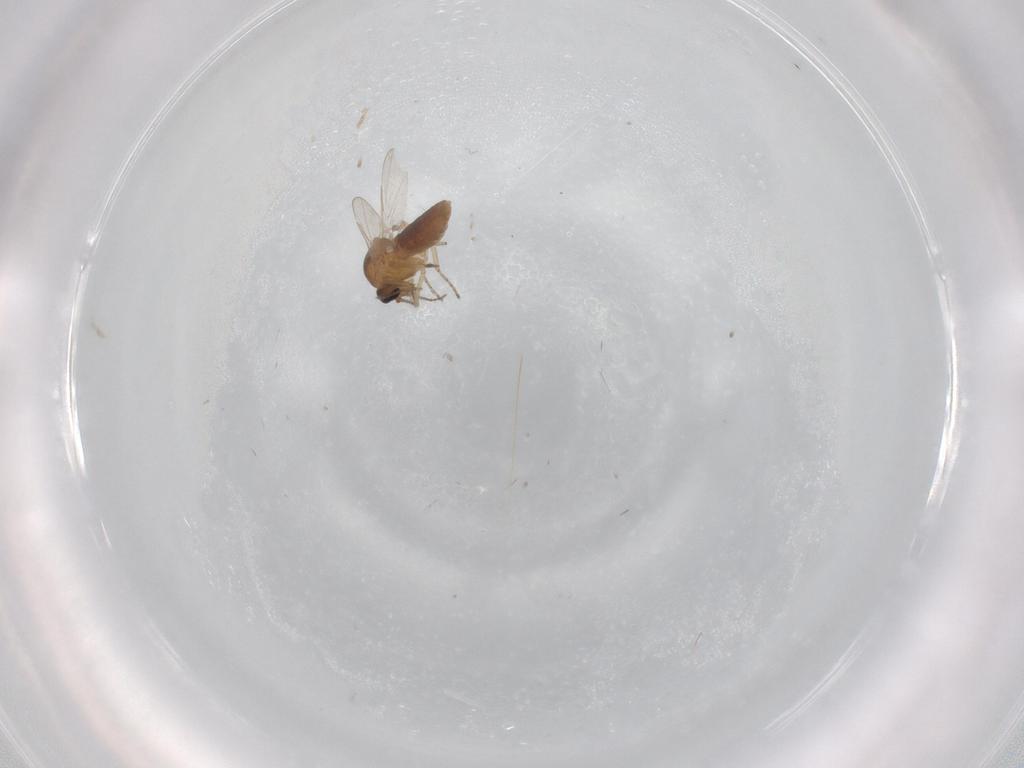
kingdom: Animalia
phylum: Arthropoda
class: Insecta
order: Diptera
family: Ceratopogonidae
